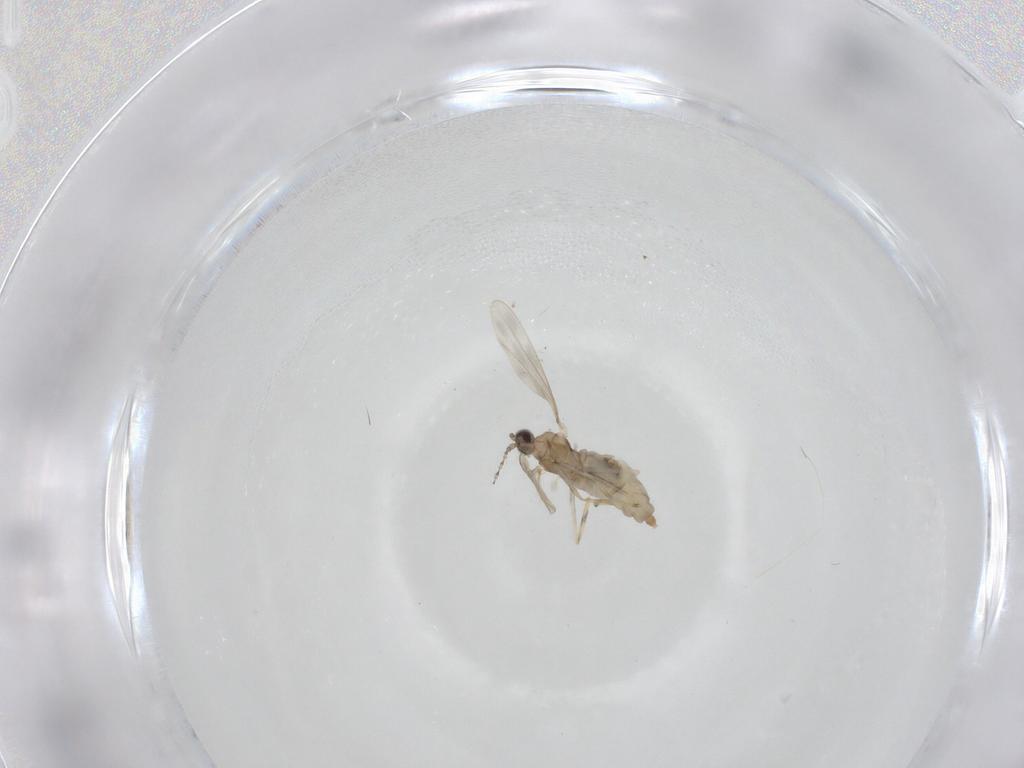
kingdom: Animalia
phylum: Arthropoda
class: Insecta
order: Diptera
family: Cecidomyiidae
